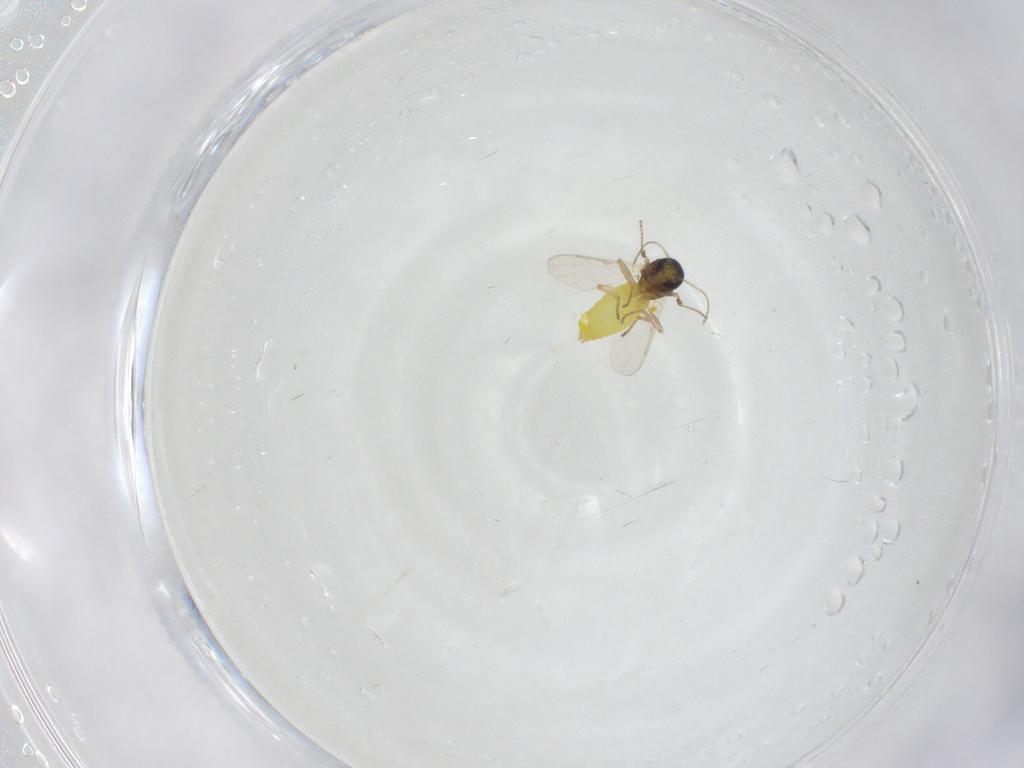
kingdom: Animalia
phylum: Arthropoda
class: Insecta
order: Diptera
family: Ceratopogonidae
